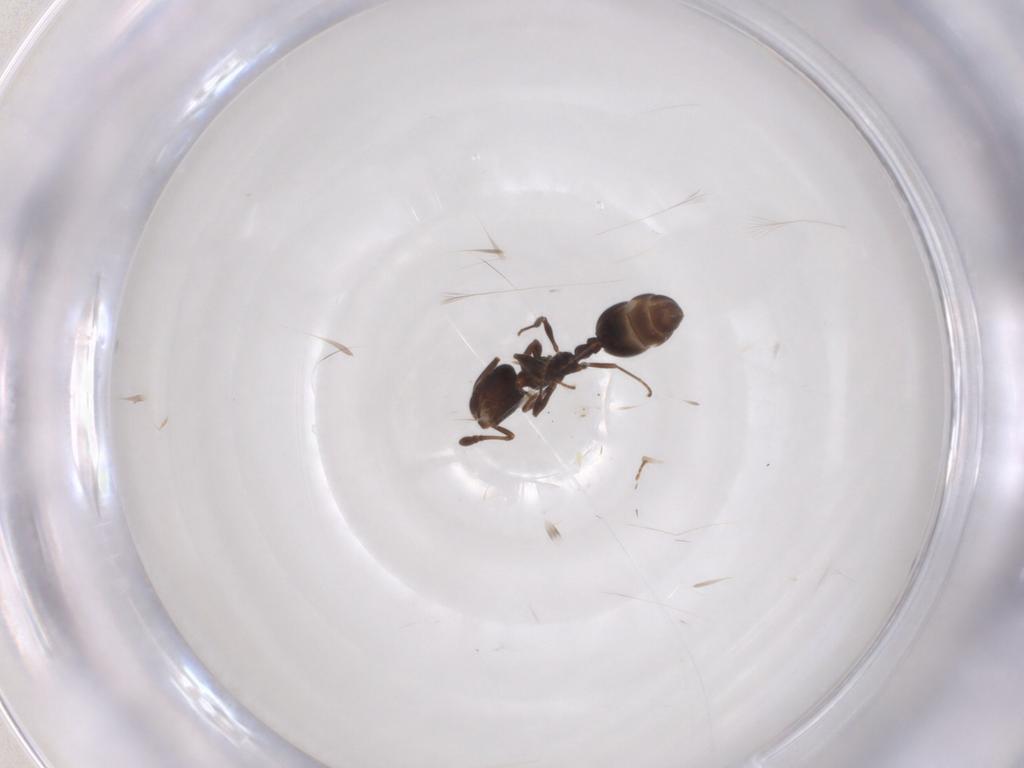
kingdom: Animalia
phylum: Arthropoda
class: Insecta
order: Hymenoptera
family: Formicidae
